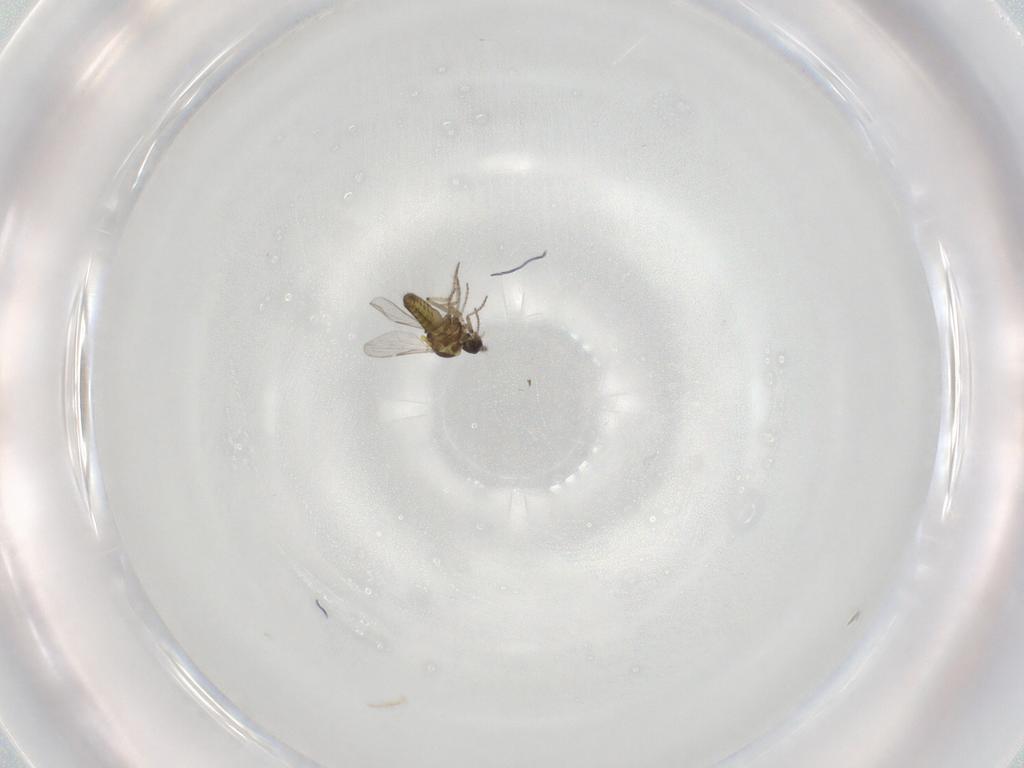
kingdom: Animalia
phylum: Arthropoda
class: Insecta
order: Diptera
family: Ceratopogonidae
